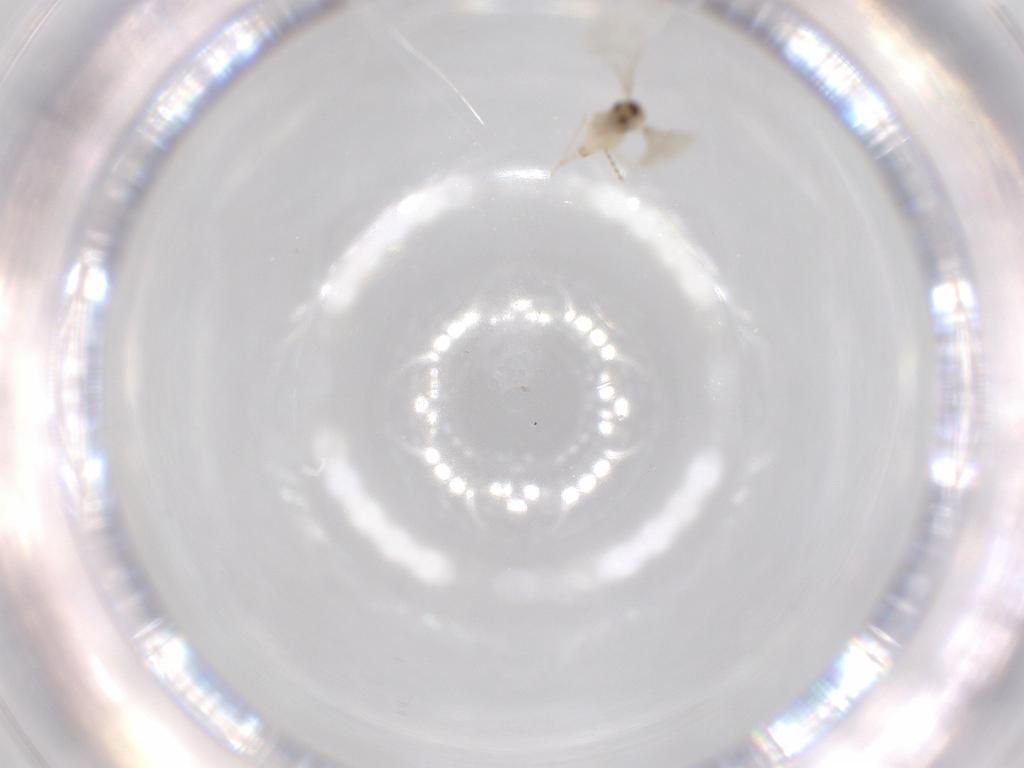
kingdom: Animalia
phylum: Arthropoda
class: Insecta
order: Diptera
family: Cecidomyiidae
